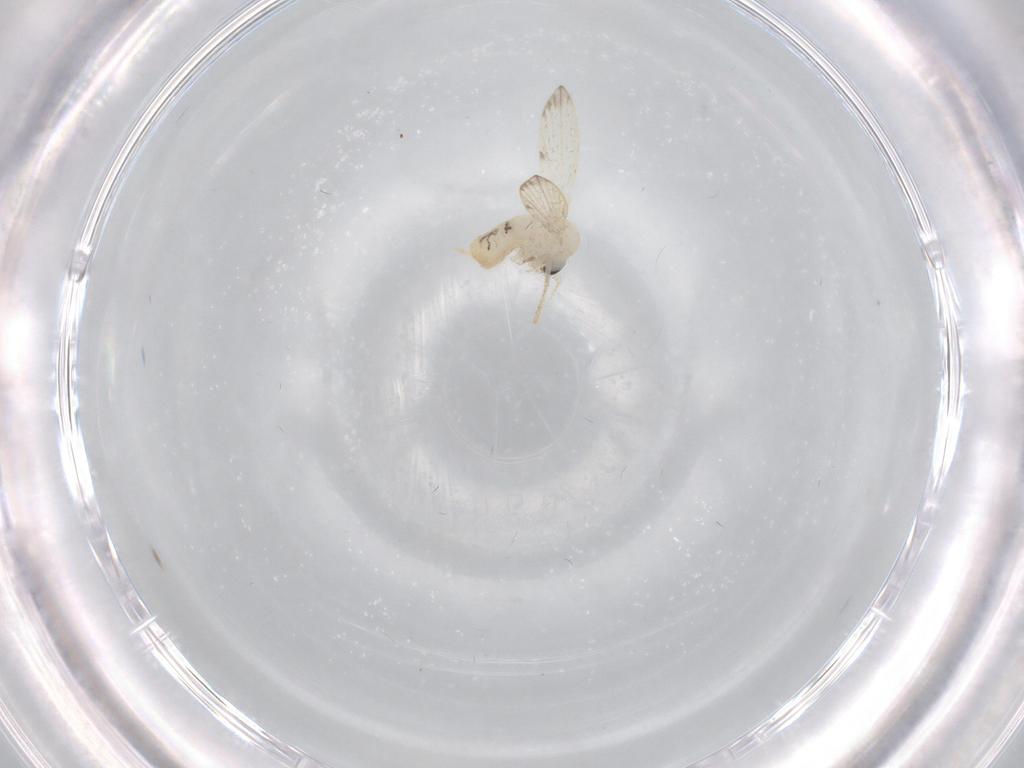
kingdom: Animalia
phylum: Arthropoda
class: Insecta
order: Diptera
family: Psychodidae
